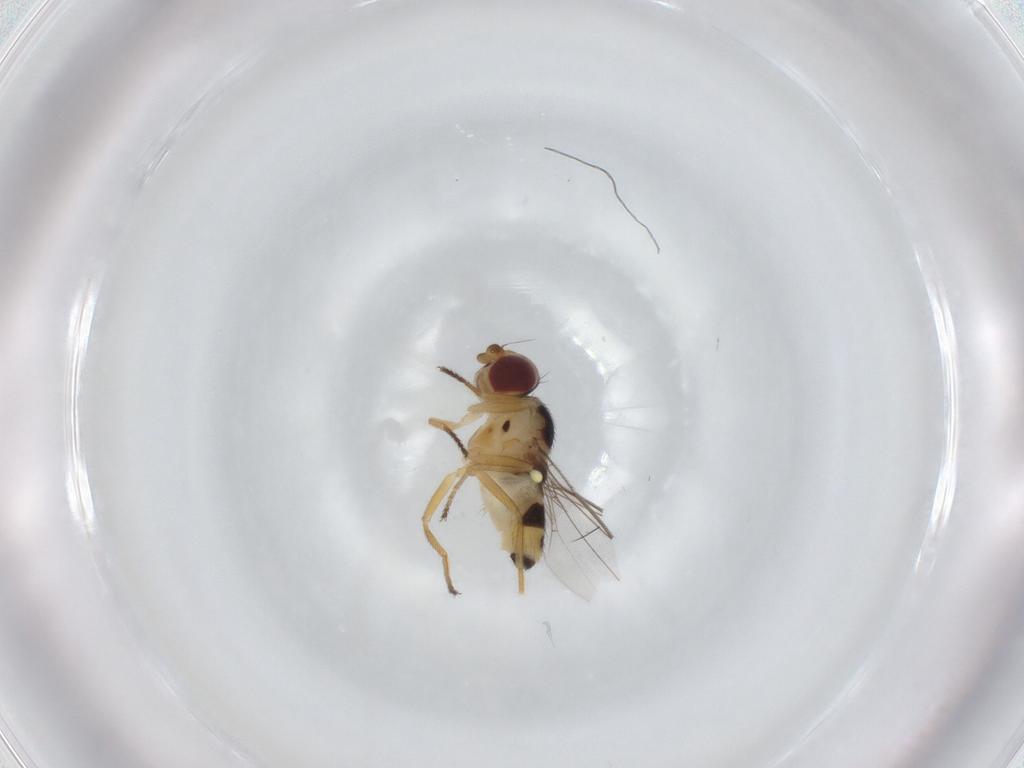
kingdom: Animalia
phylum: Arthropoda
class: Insecta
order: Diptera
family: Chloropidae
